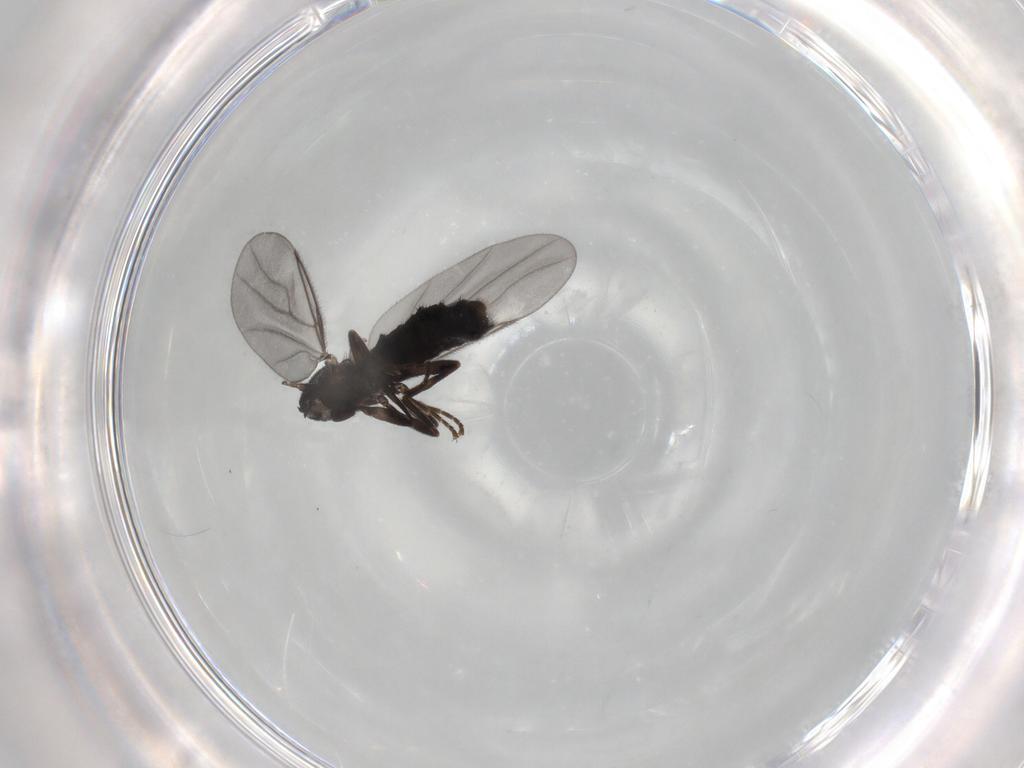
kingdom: Animalia
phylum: Arthropoda
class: Insecta
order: Diptera
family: Scatopsidae
